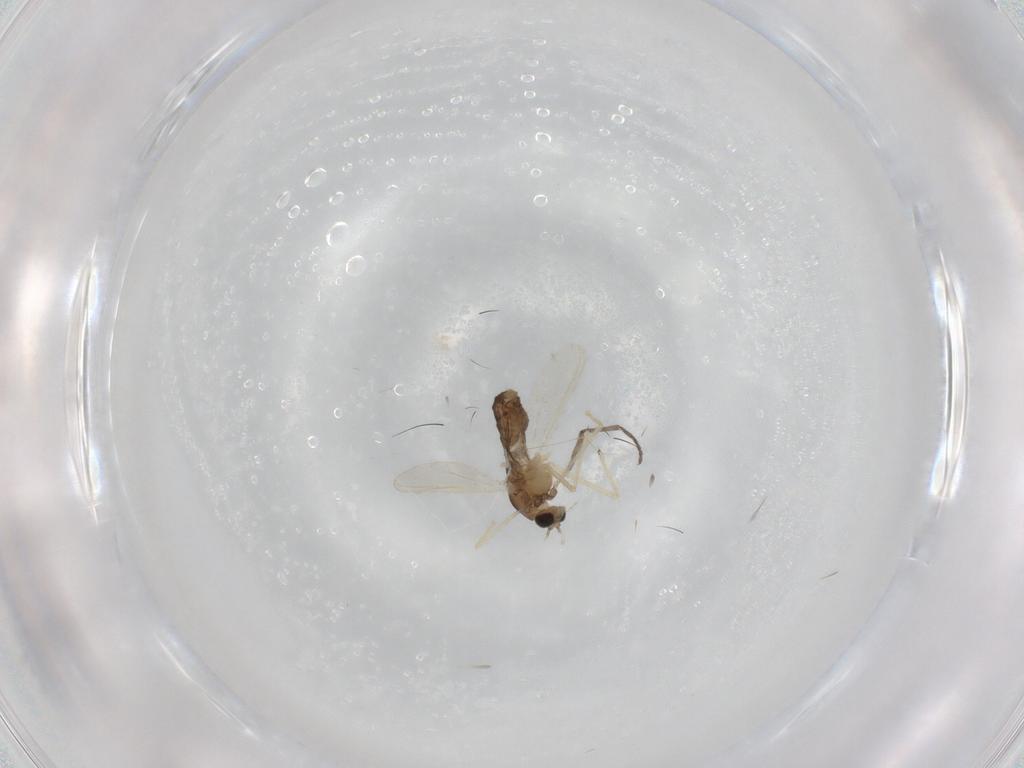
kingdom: Animalia
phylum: Arthropoda
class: Insecta
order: Diptera
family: Chironomidae
